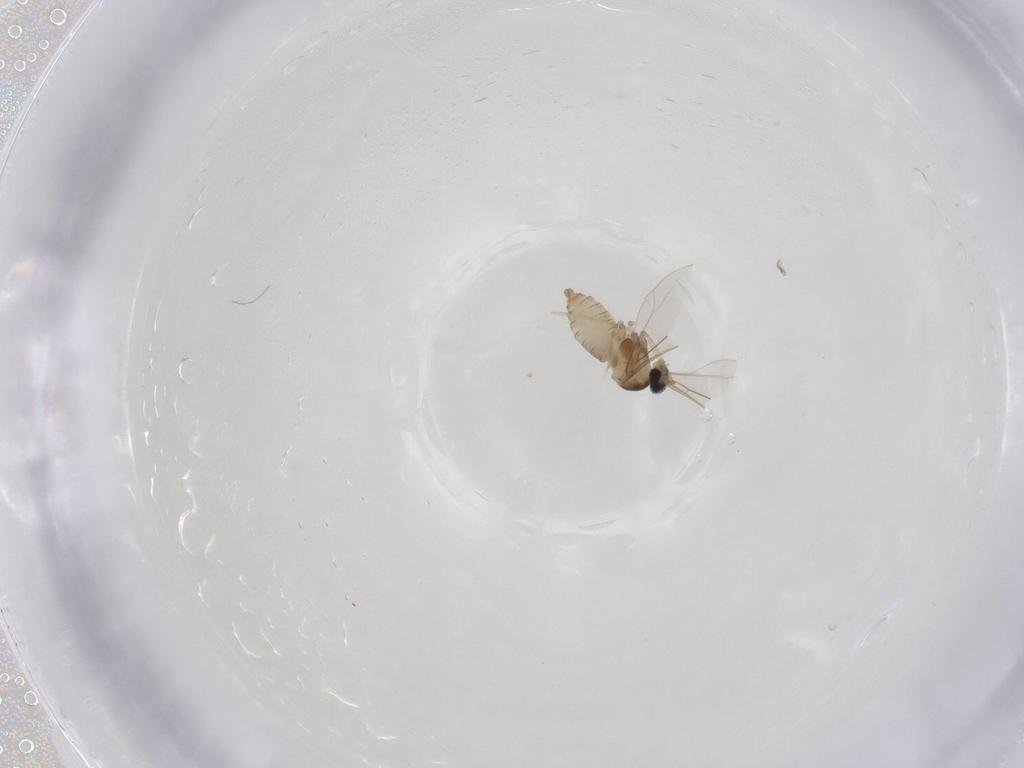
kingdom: Animalia
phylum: Arthropoda
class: Insecta
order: Diptera
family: Cecidomyiidae
